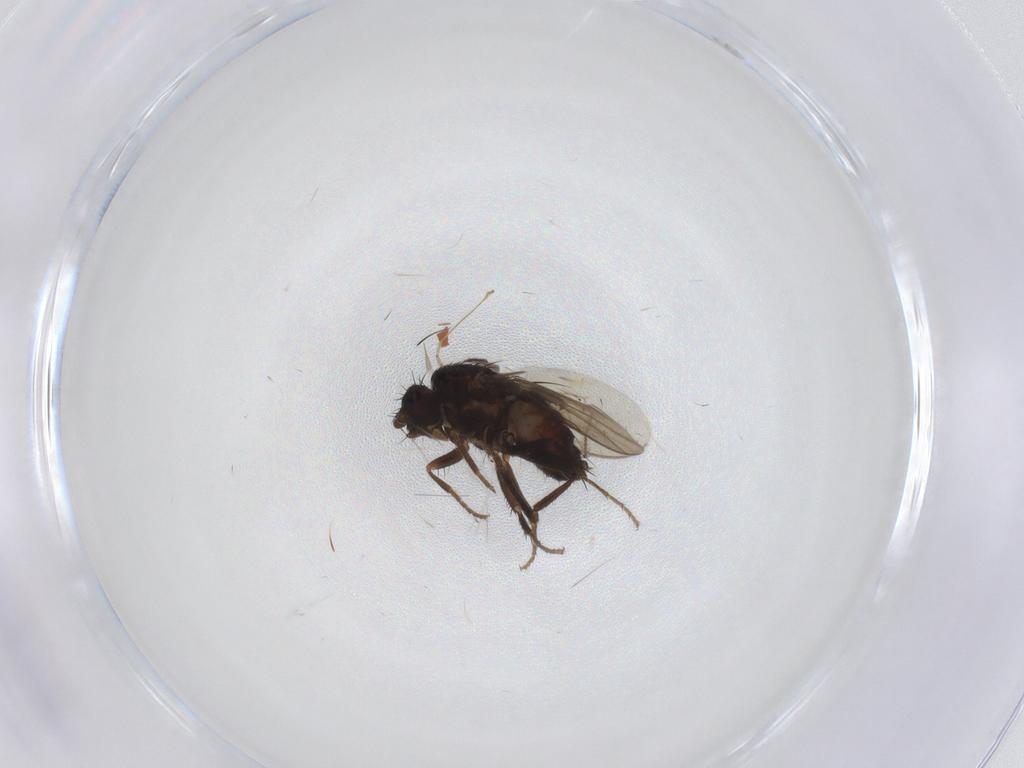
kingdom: Animalia
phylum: Arthropoda
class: Insecta
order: Diptera
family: Sphaeroceridae
